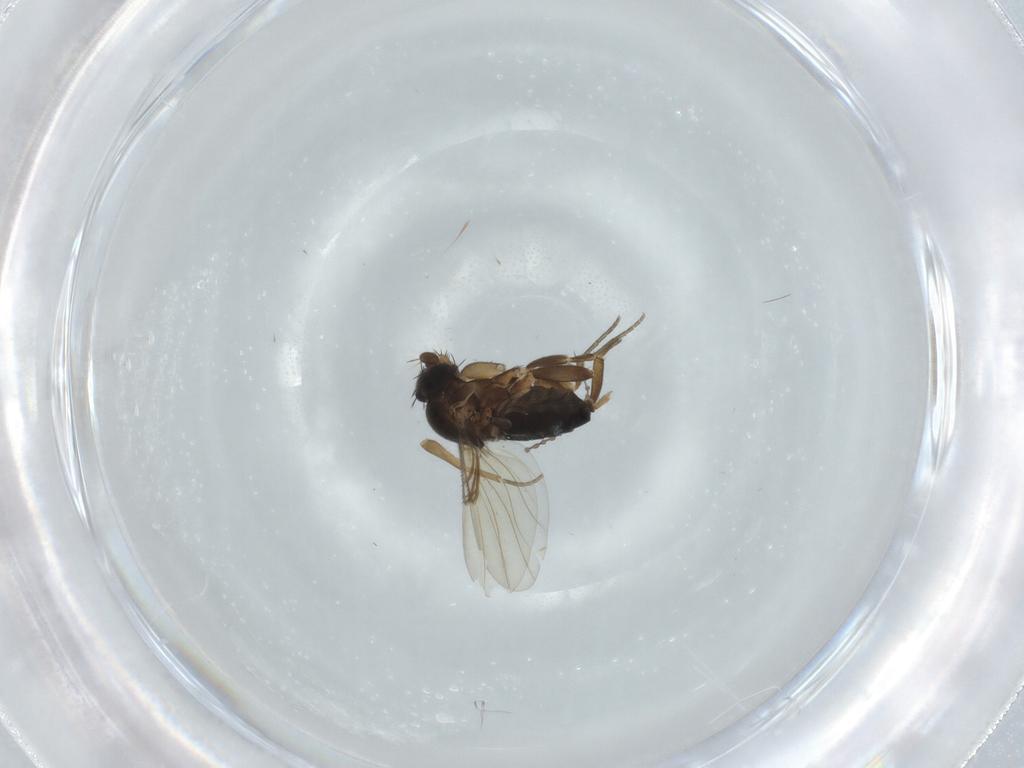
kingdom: Animalia
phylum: Arthropoda
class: Insecta
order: Diptera
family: Cecidomyiidae
